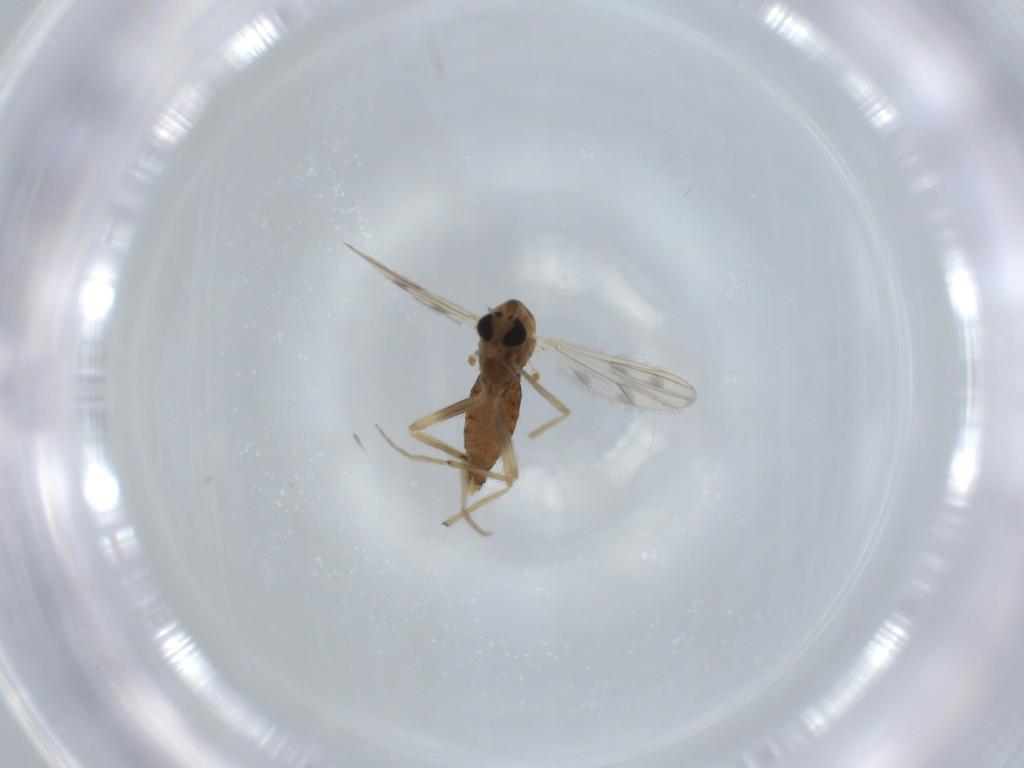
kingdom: Animalia
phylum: Arthropoda
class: Insecta
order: Diptera
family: Chironomidae
